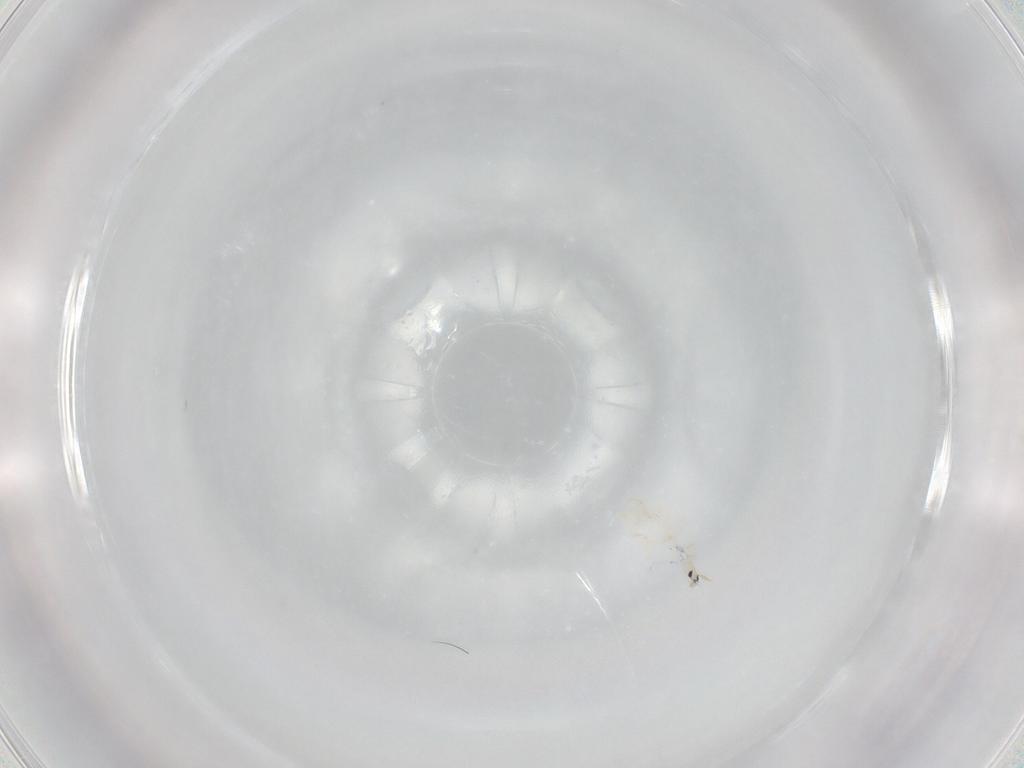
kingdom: Animalia
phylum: Arthropoda
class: Collembola
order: Entomobryomorpha
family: Entomobryidae
